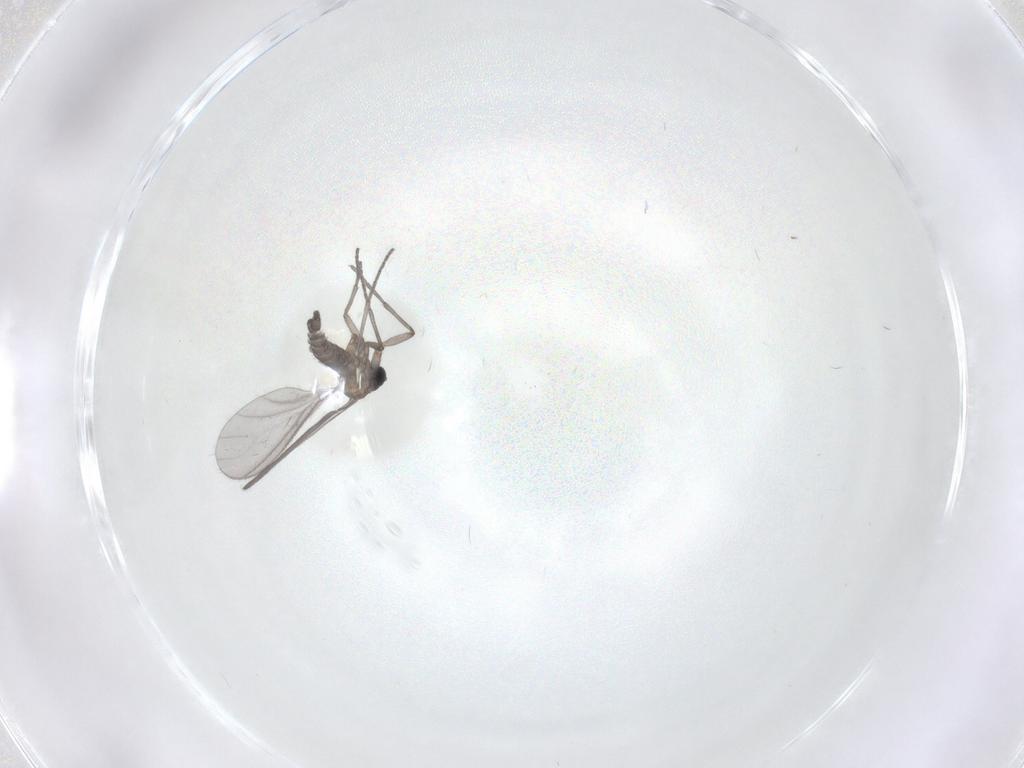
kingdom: Animalia
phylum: Arthropoda
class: Insecta
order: Diptera
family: Sciaridae
